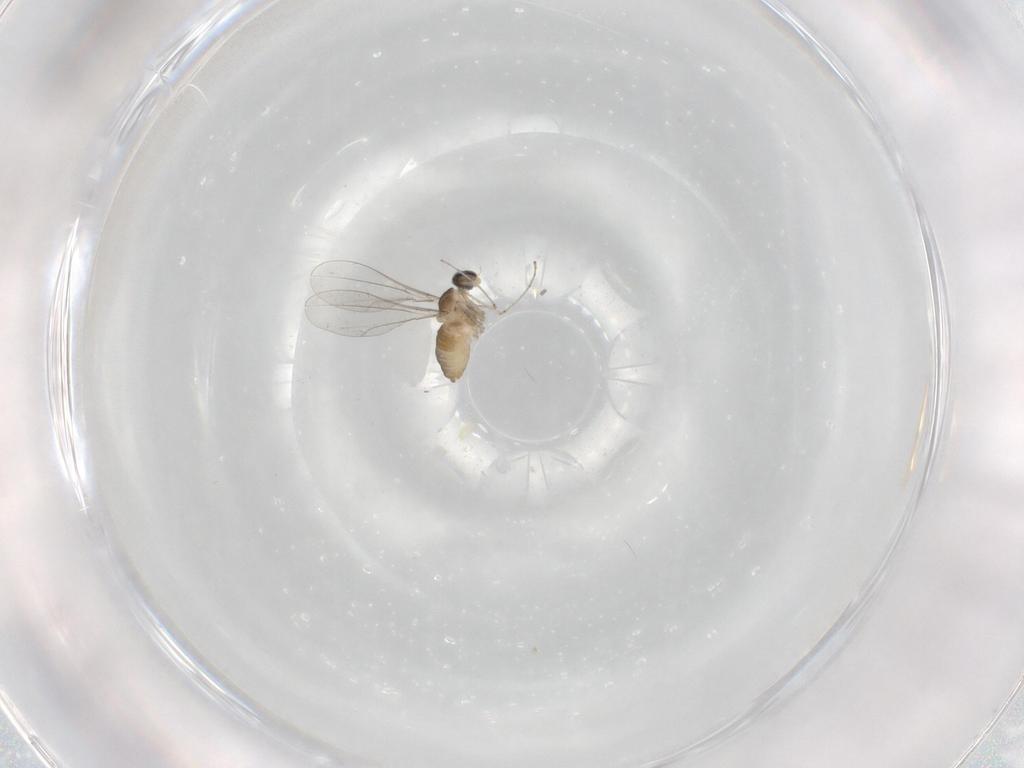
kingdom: Animalia
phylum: Arthropoda
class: Insecta
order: Diptera
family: Cecidomyiidae
